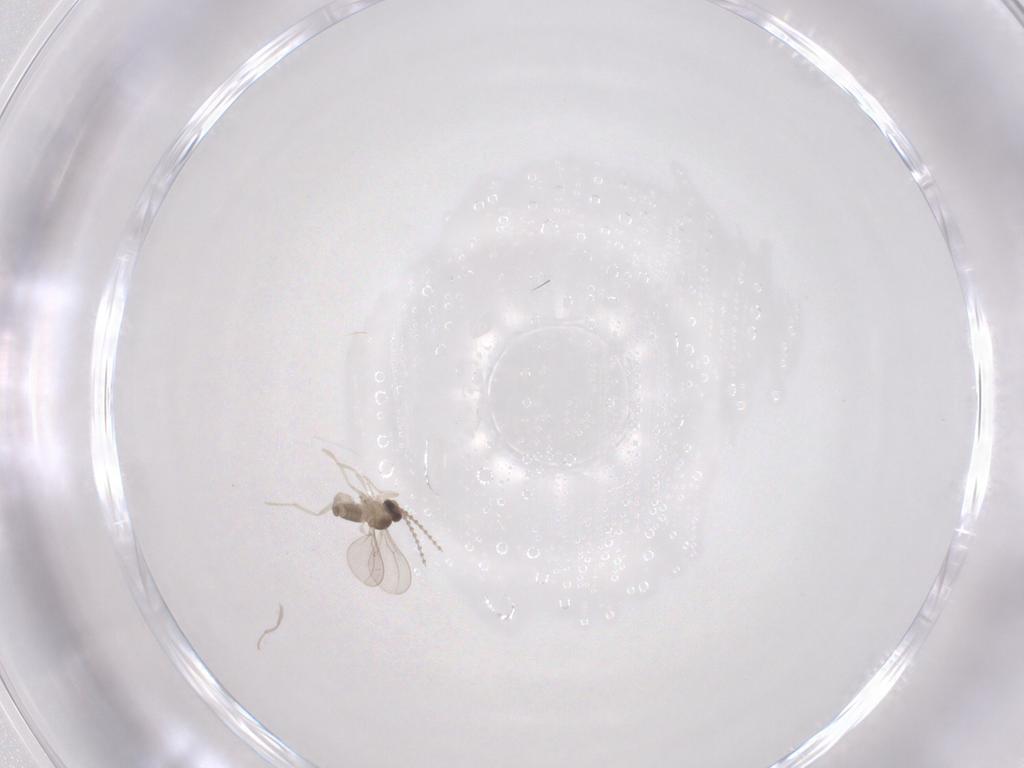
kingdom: Animalia
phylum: Arthropoda
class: Insecta
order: Diptera
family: Cecidomyiidae
